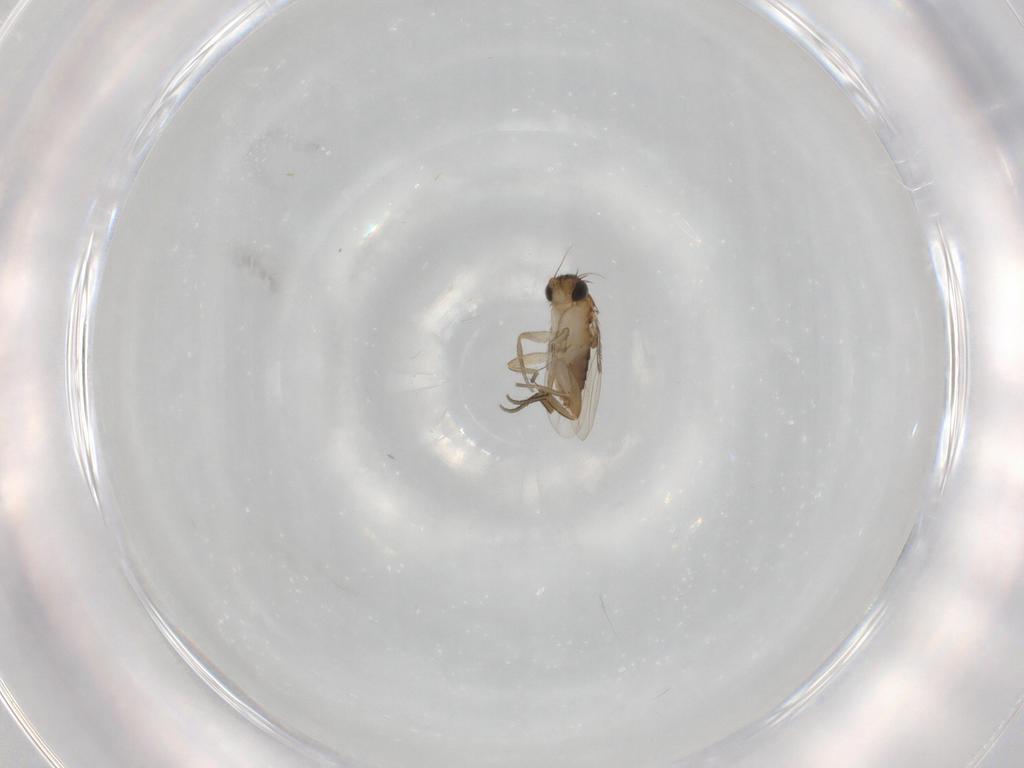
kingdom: Animalia
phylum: Arthropoda
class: Insecta
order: Diptera
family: Phoridae
